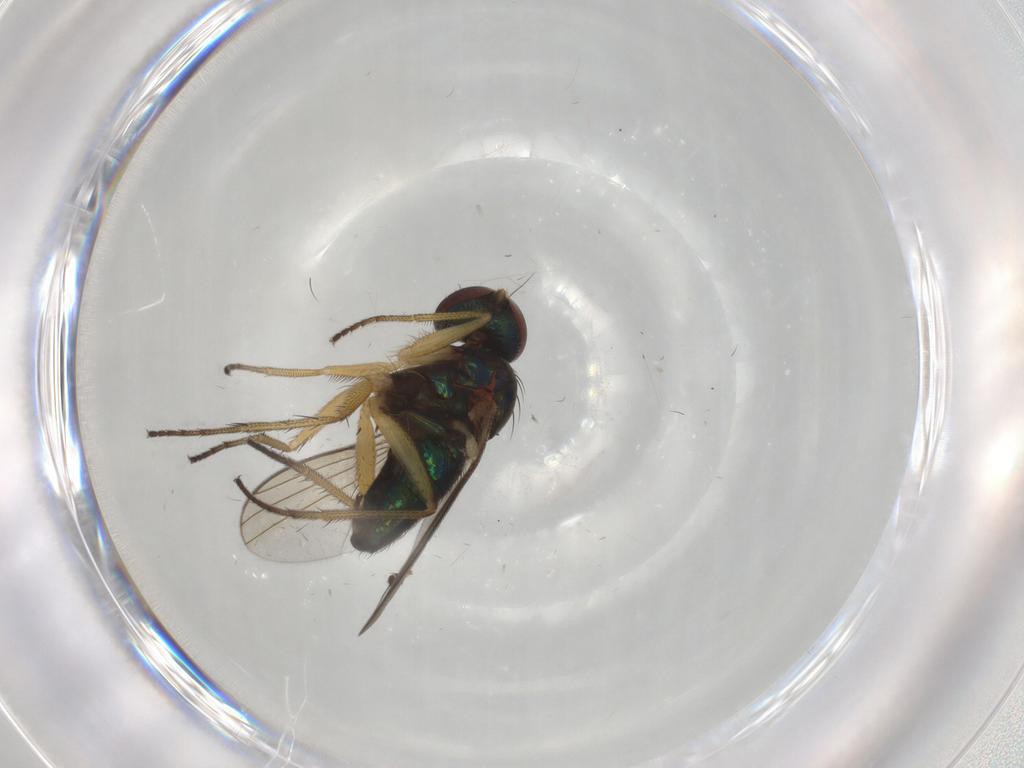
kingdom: Animalia
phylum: Arthropoda
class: Insecta
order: Diptera
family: Dolichopodidae
